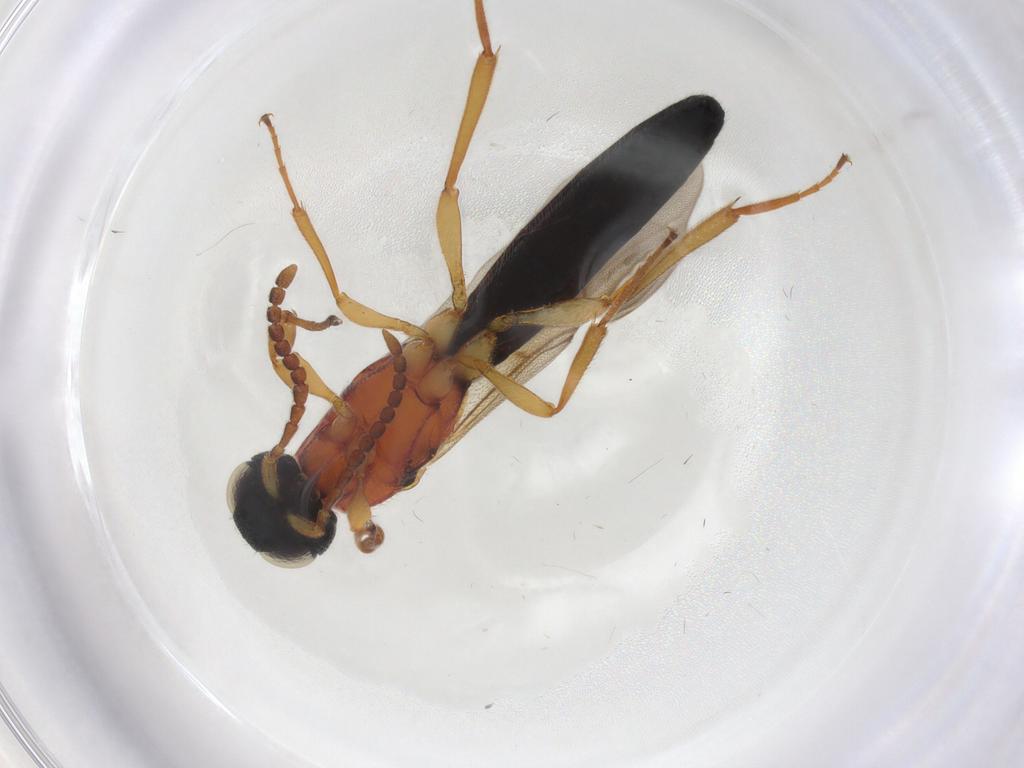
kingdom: Animalia
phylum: Arthropoda
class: Insecta
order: Hymenoptera
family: Scelionidae
